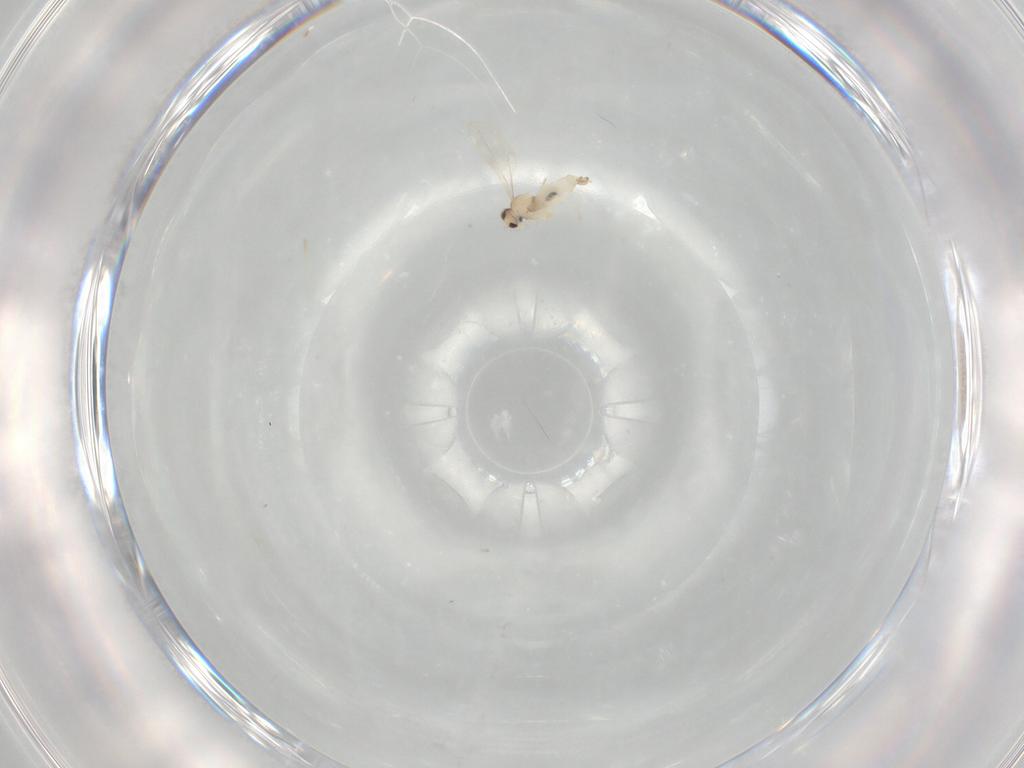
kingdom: Animalia
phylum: Arthropoda
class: Insecta
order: Diptera
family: Cecidomyiidae
